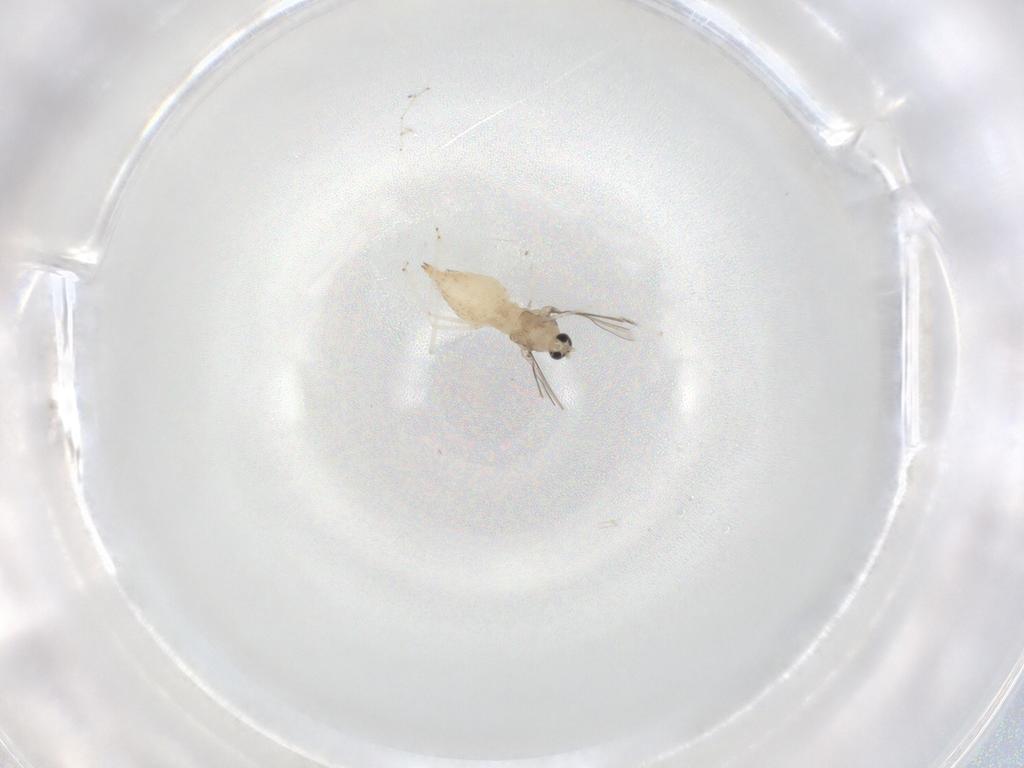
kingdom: Animalia
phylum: Arthropoda
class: Insecta
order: Diptera
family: Cecidomyiidae
